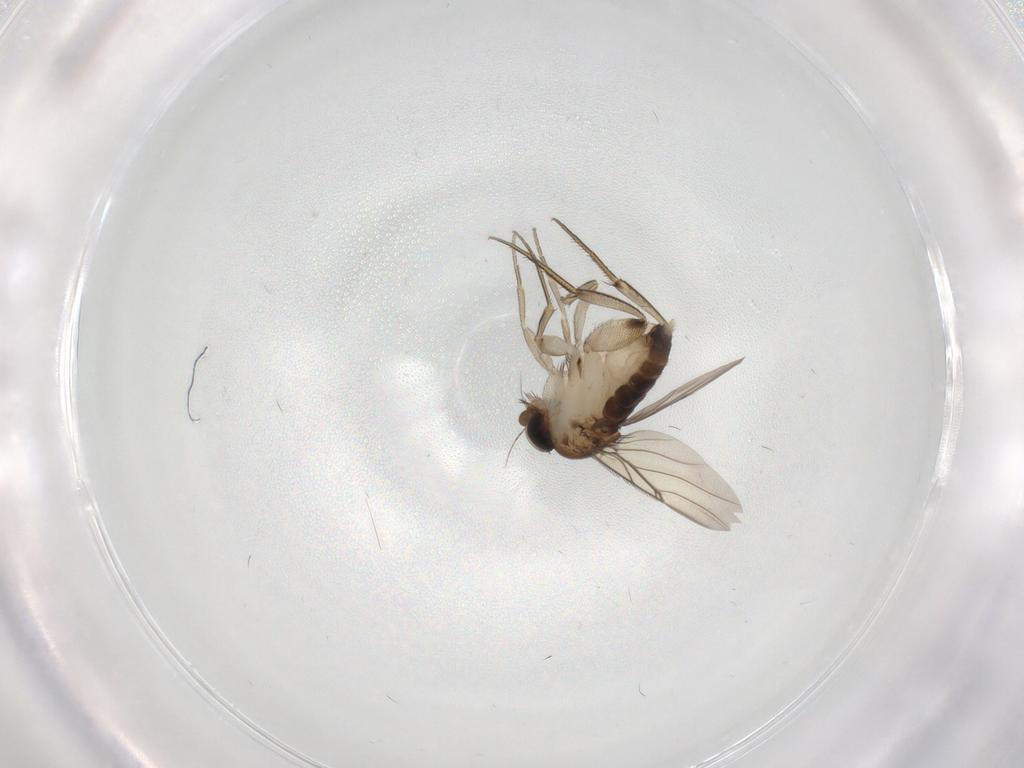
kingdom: Animalia
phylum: Arthropoda
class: Insecta
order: Diptera
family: Phoridae
